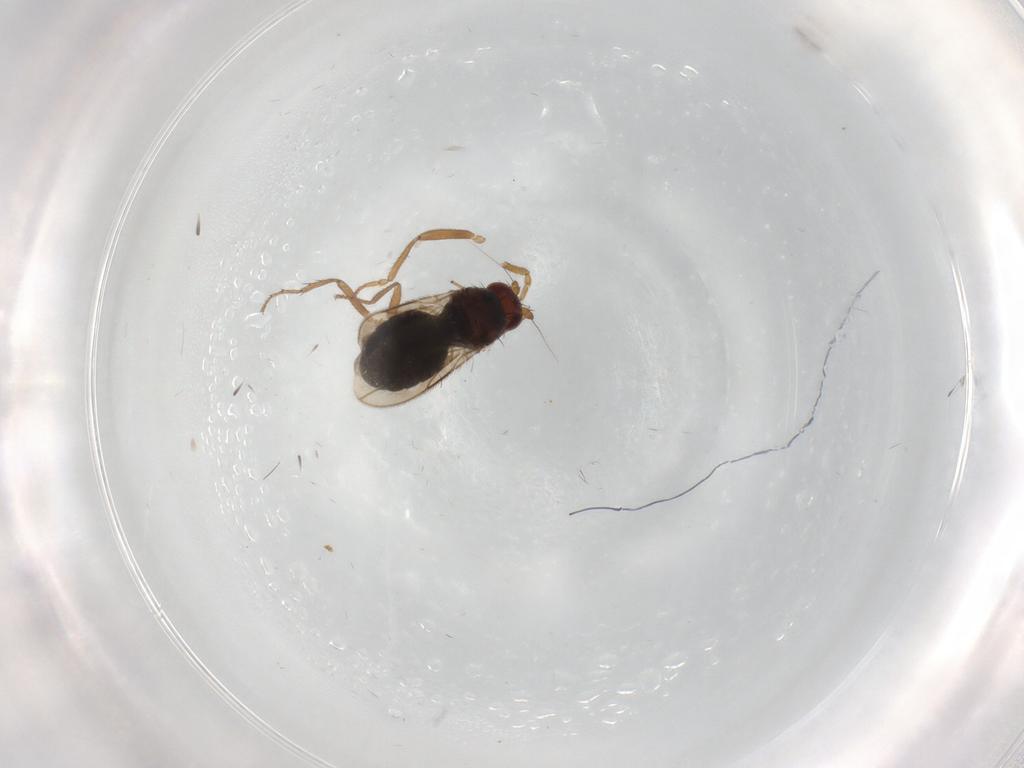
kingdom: Animalia
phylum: Arthropoda
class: Insecta
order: Diptera
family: Sphaeroceridae
